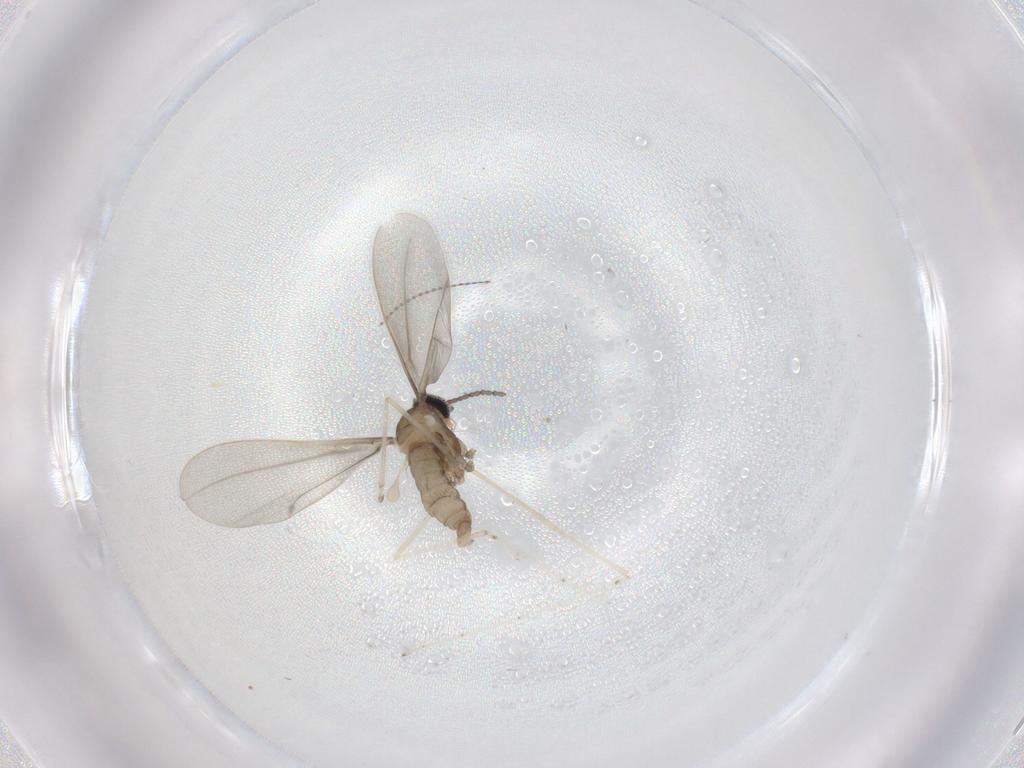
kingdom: Animalia
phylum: Arthropoda
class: Insecta
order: Diptera
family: Cecidomyiidae
